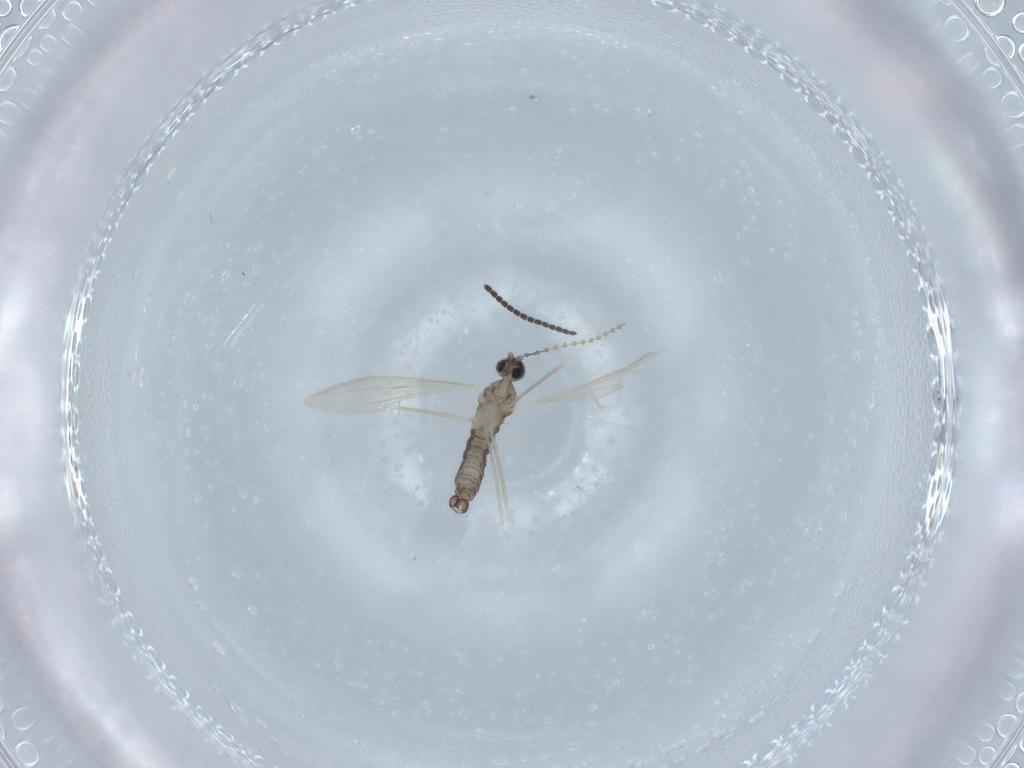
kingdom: Animalia
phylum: Arthropoda
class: Insecta
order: Diptera
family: Cecidomyiidae
